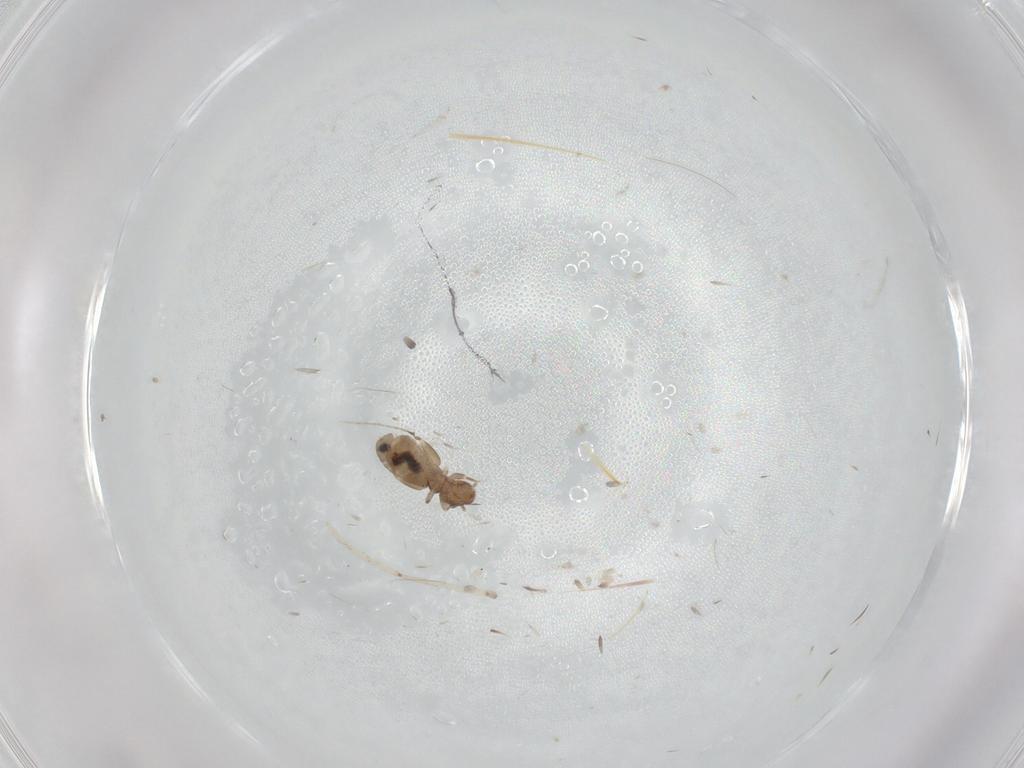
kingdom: Animalia
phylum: Arthropoda
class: Insecta
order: Psocodea
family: Liposcelididae
